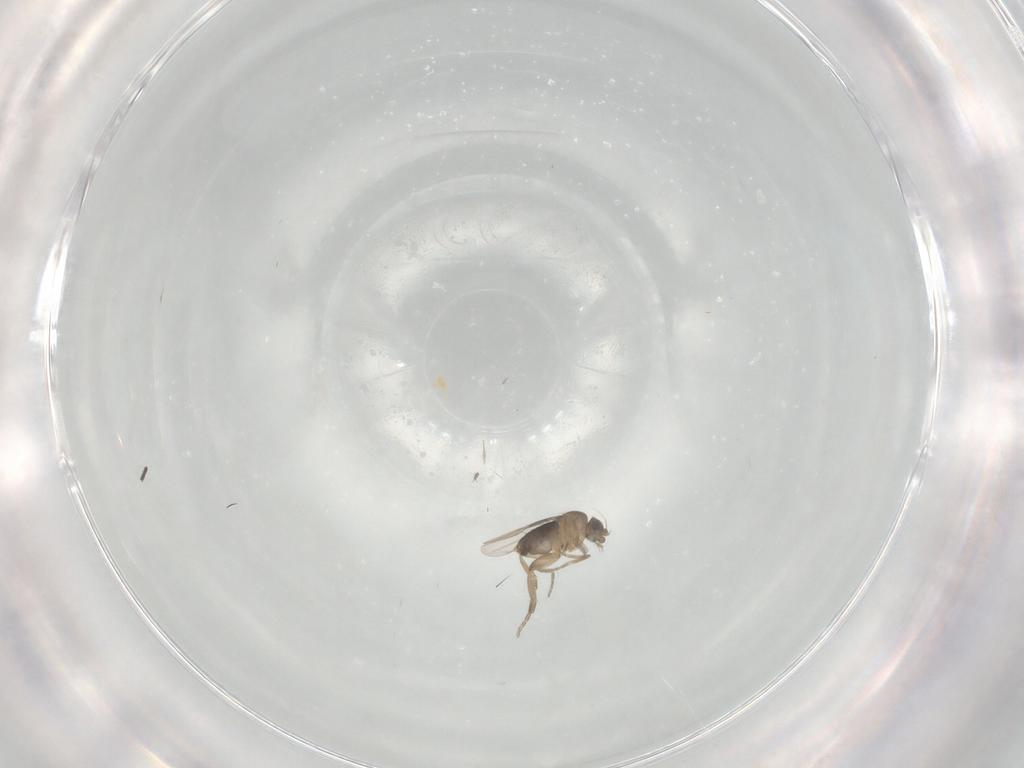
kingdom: Animalia
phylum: Arthropoda
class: Insecta
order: Diptera
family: Phoridae
